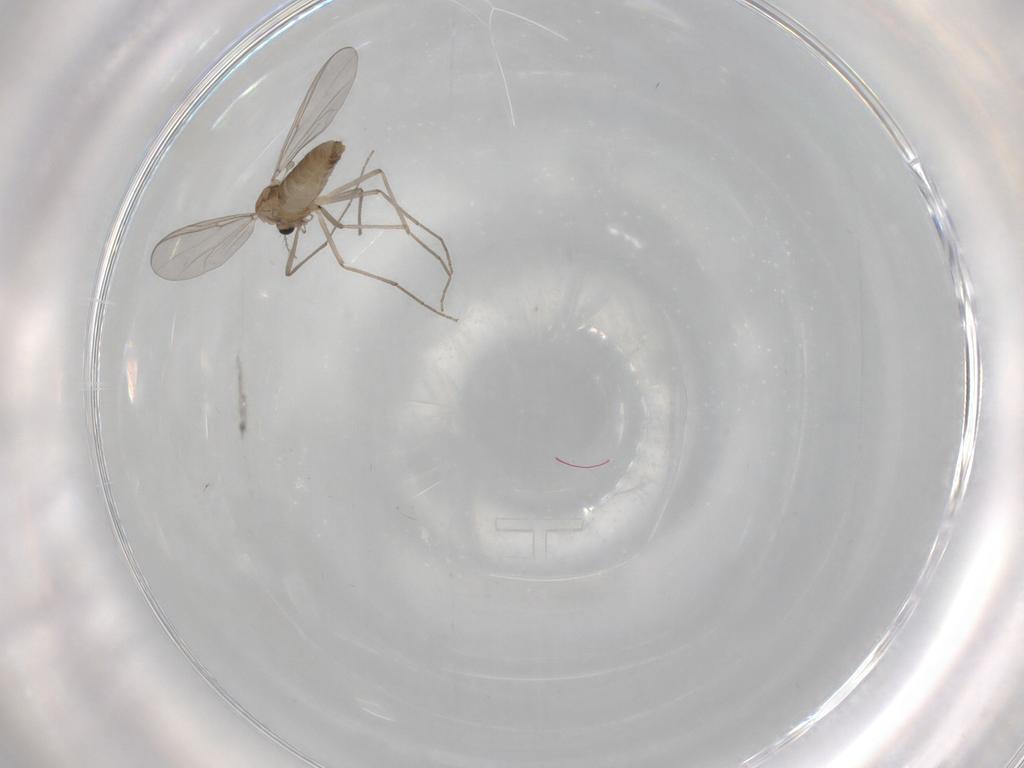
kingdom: Animalia
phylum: Arthropoda
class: Insecta
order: Diptera
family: Chironomidae
